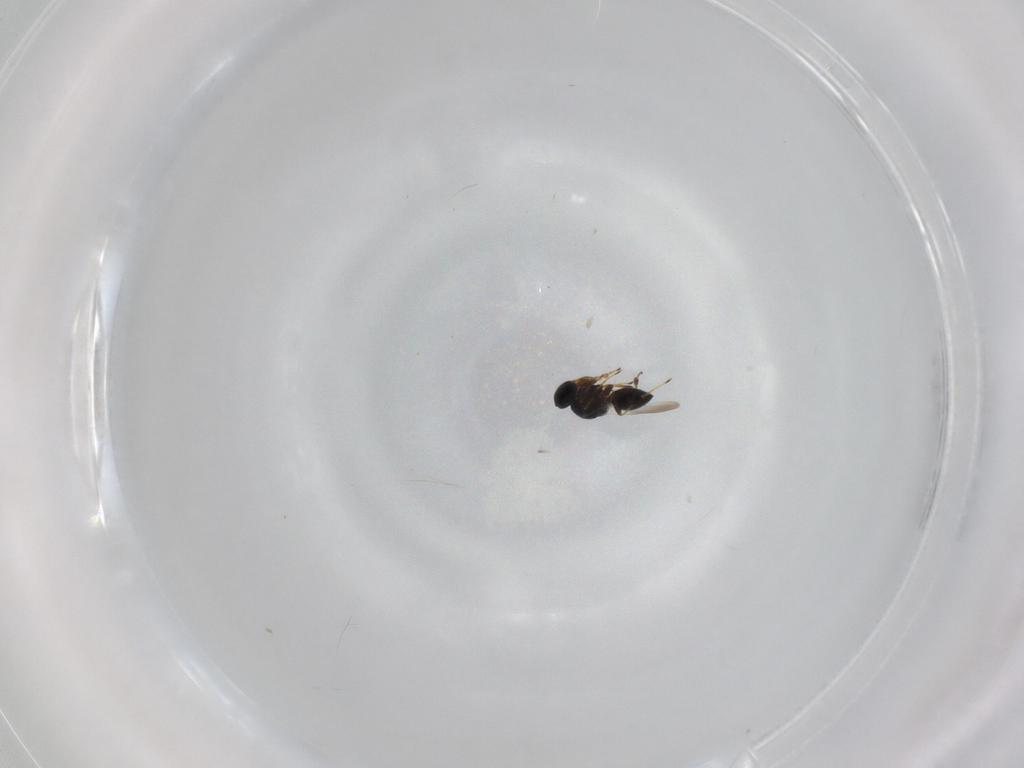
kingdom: Animalia
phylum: Arthropoda
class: Insecta
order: Hymenoptera
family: Platygastridae
